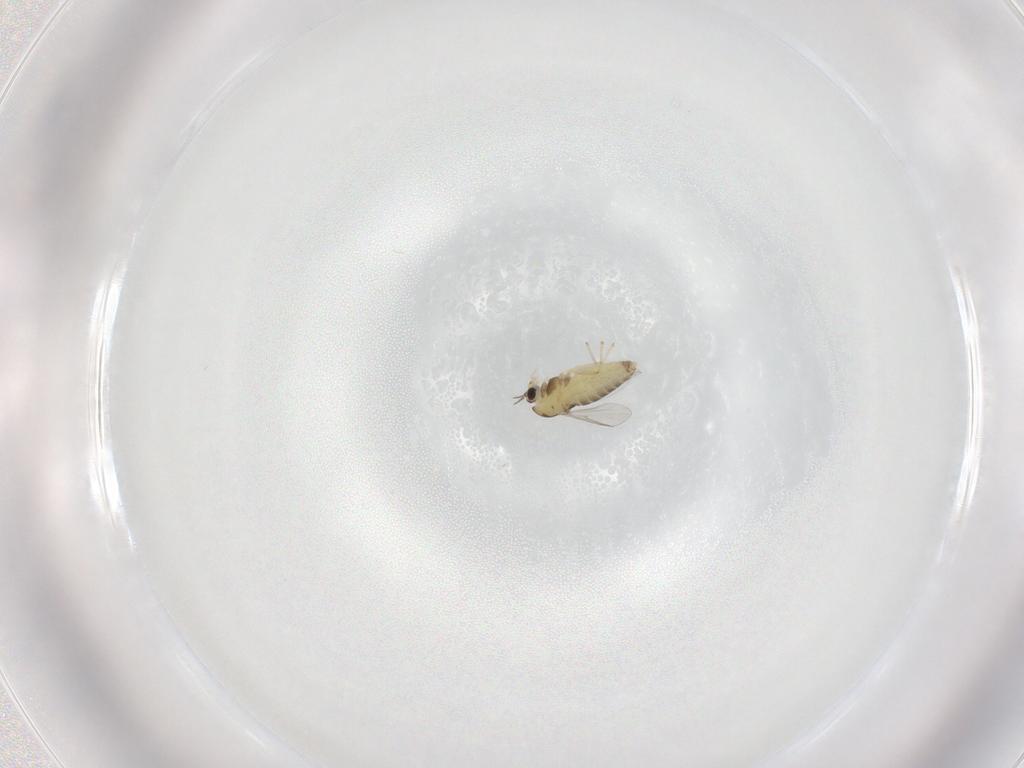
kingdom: Animalia
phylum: Arthropoda
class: Insecta
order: Diptera
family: Chironomidae
